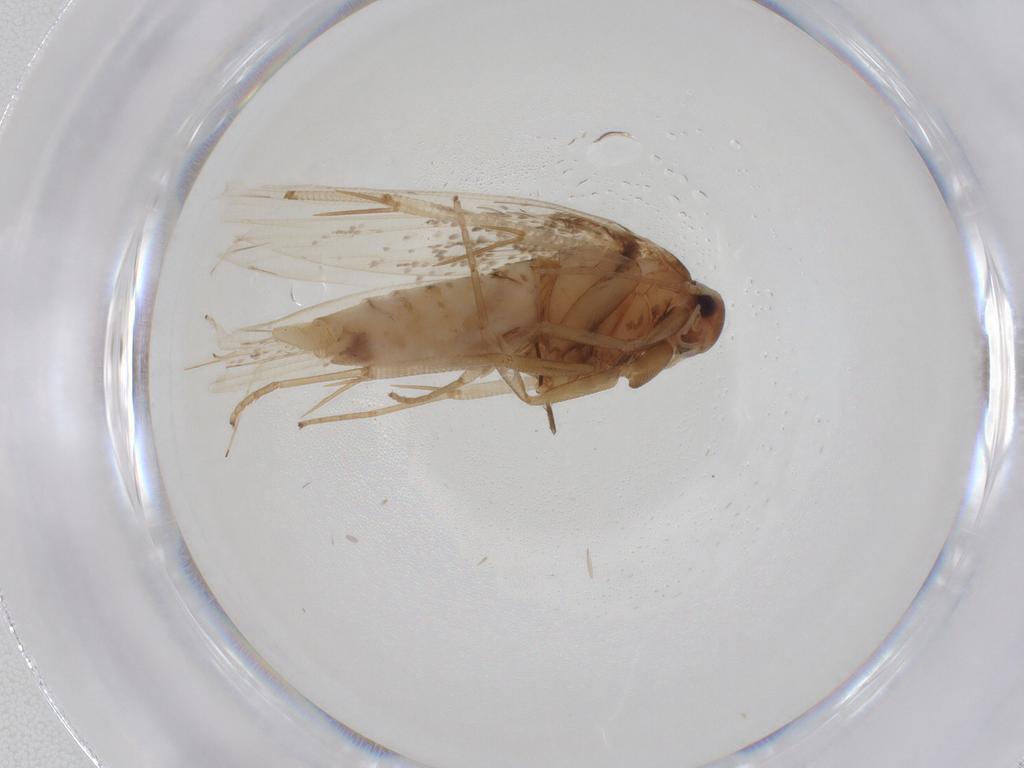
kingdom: Animalia
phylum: Arthropoda
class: Insecta
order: Lepidoptera
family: Cosmopterigidae
